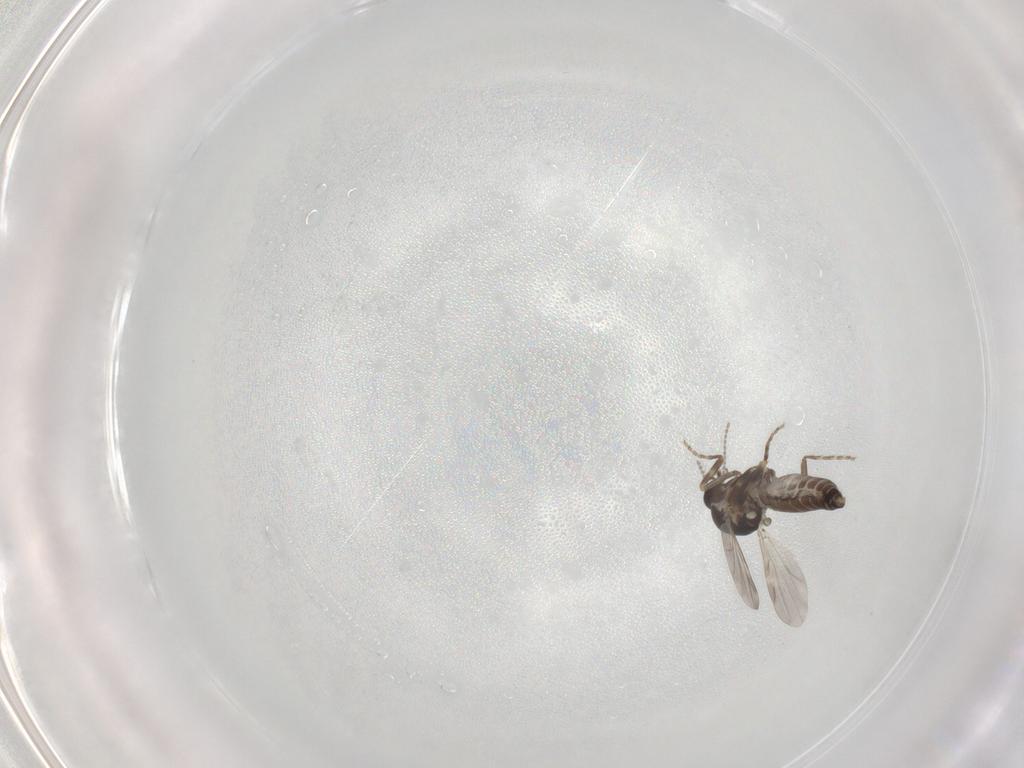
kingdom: Animalia
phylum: Arthropoda
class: Insecta
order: Diptera
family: Ceratopogonidae
